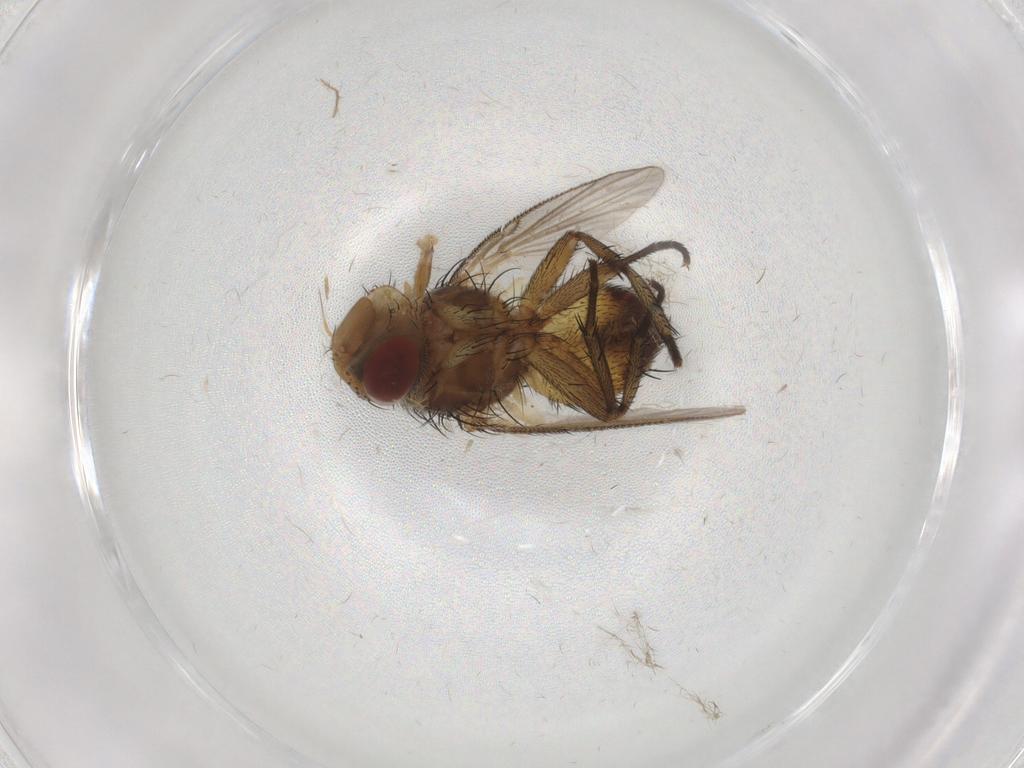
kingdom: Animalia
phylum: Arthropoda
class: Insecta
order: Diptera
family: Tachinidae
